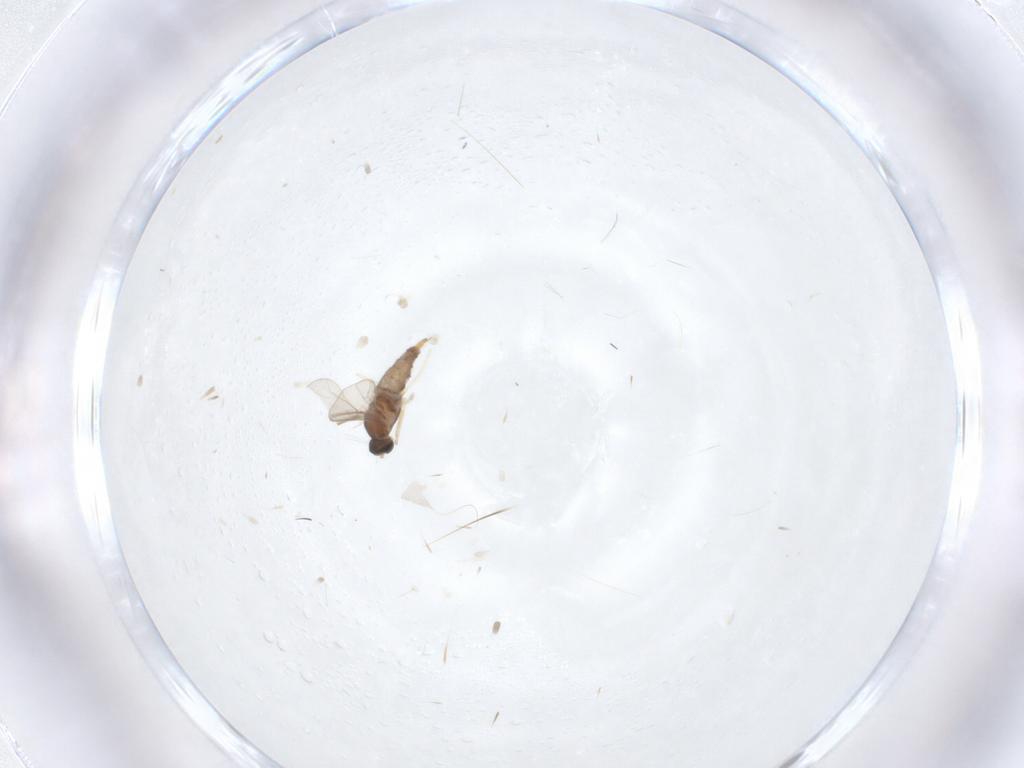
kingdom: Animalia
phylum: Arthropoda
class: Insecta
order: Diptera
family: Cecidomyiidae
